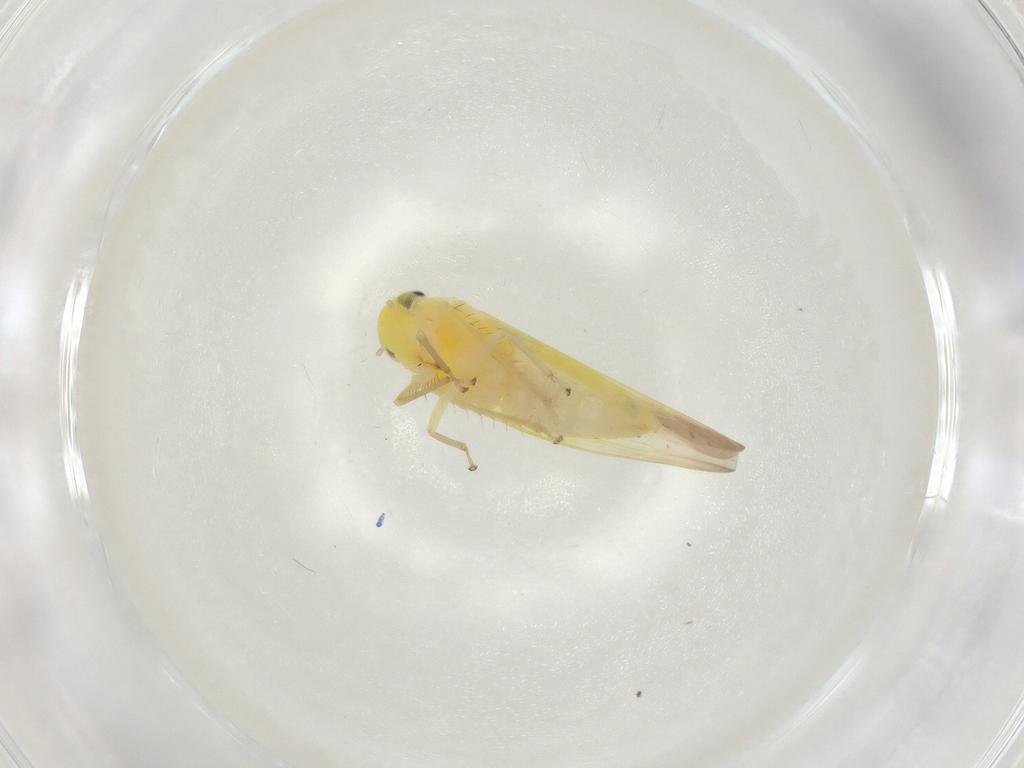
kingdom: Animalia
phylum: Arthropoda
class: Insecta
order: Hemiptera
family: Cicadellidae
